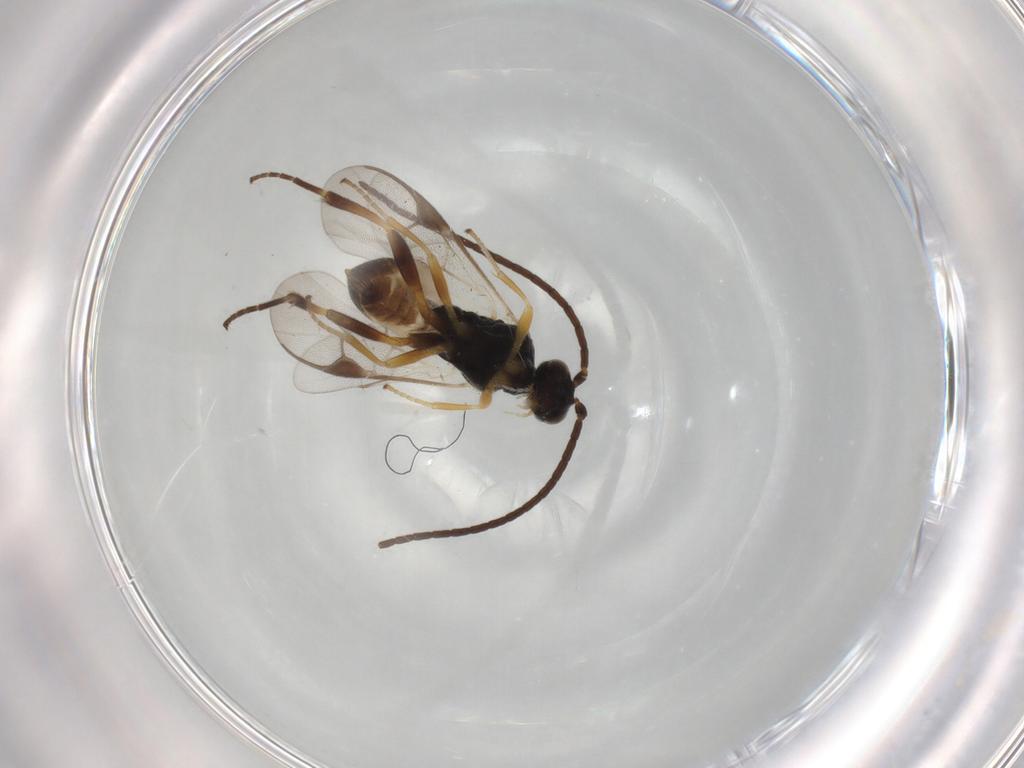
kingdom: Animalia
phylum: Arthropoda
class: Insecta
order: Hymenoptera
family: Braconidae
